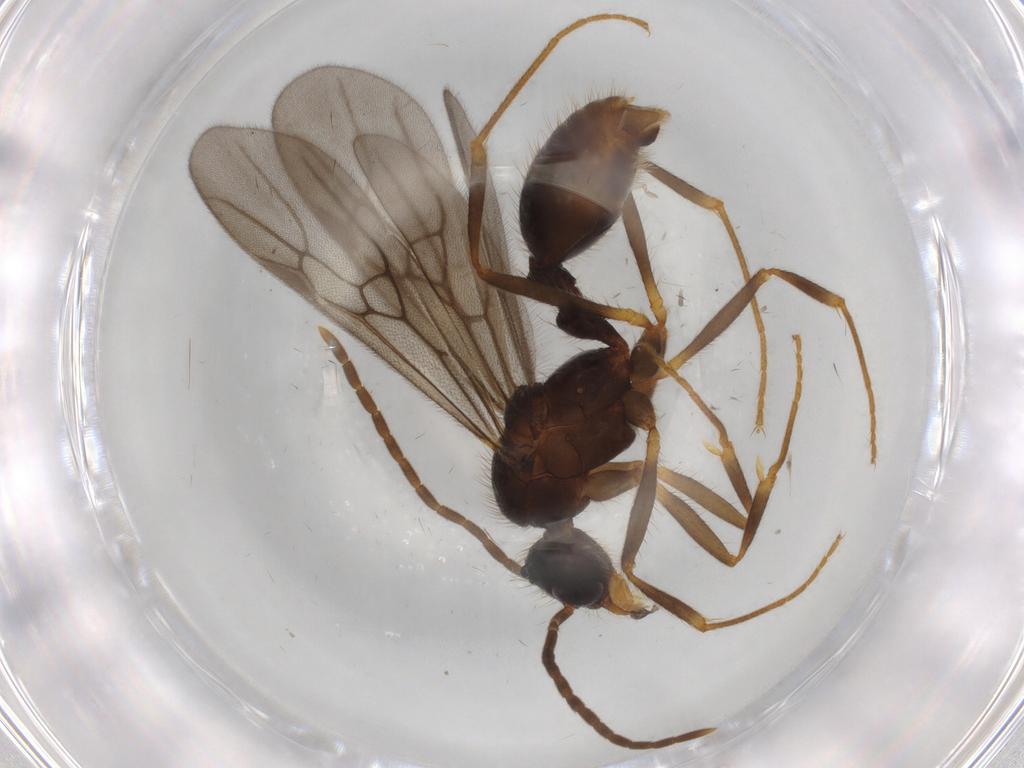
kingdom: Animalia
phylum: Arthropoda
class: Insecta
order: Hymenoptera
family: Formicidae
